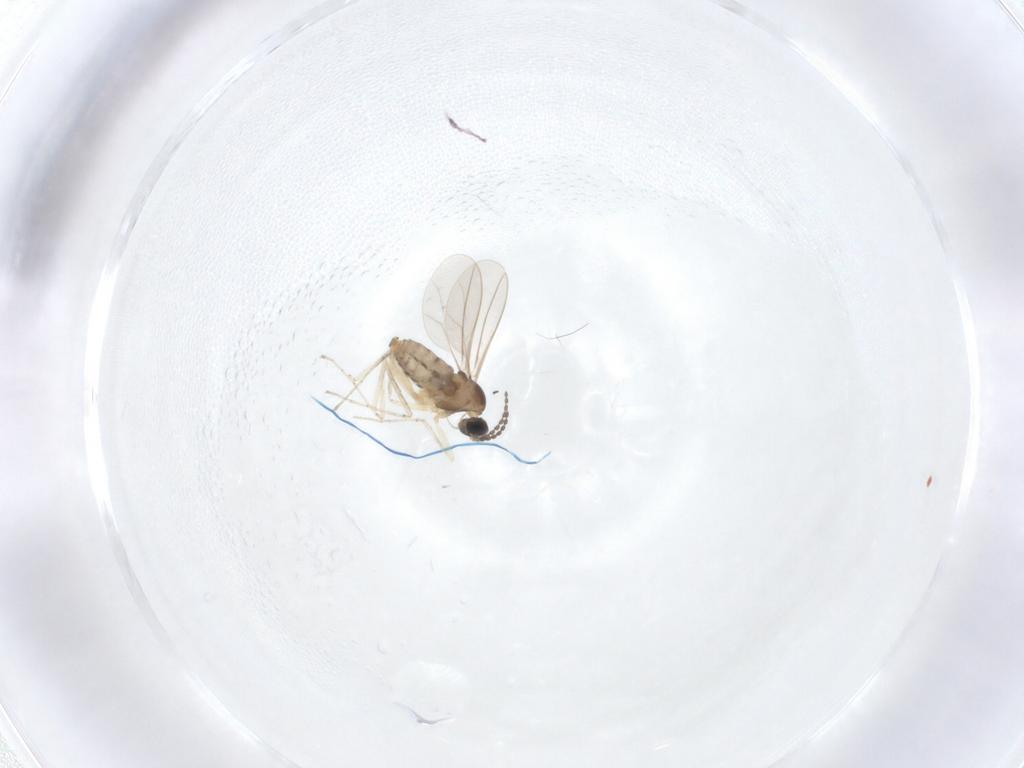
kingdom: Animalia
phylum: Arthropoda
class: Insecta
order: Diptera
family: Cecidomyiidae
